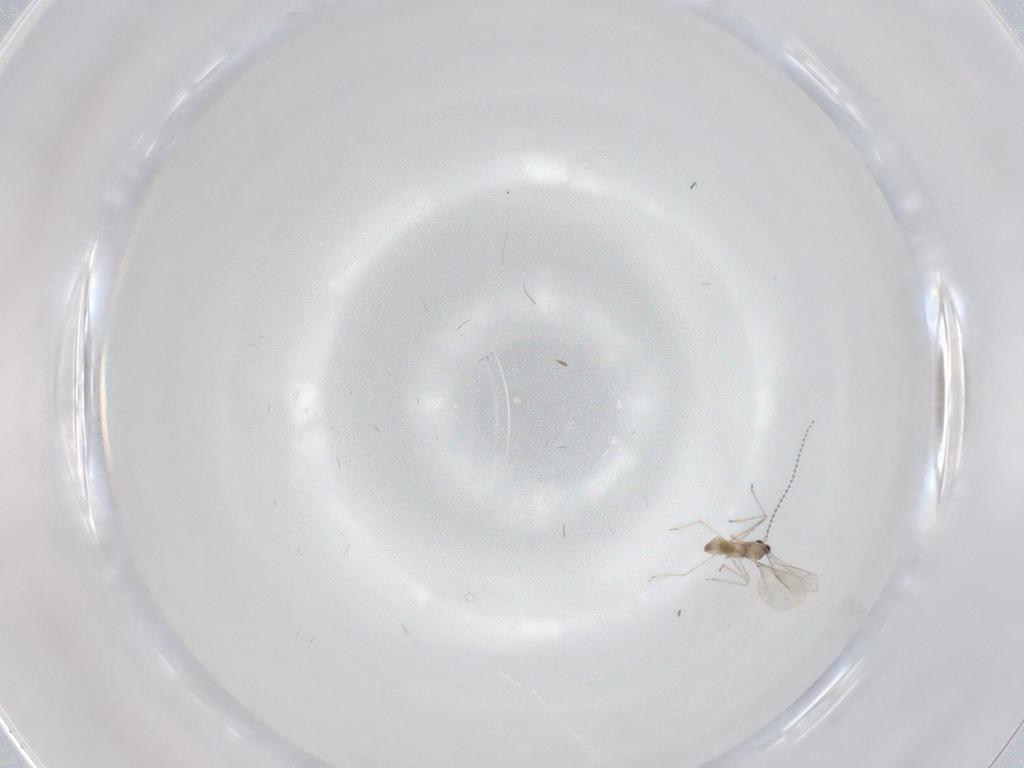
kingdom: Animalia
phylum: Arthropoda
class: Insecta
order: Diptera
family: Cecidomyiidae
